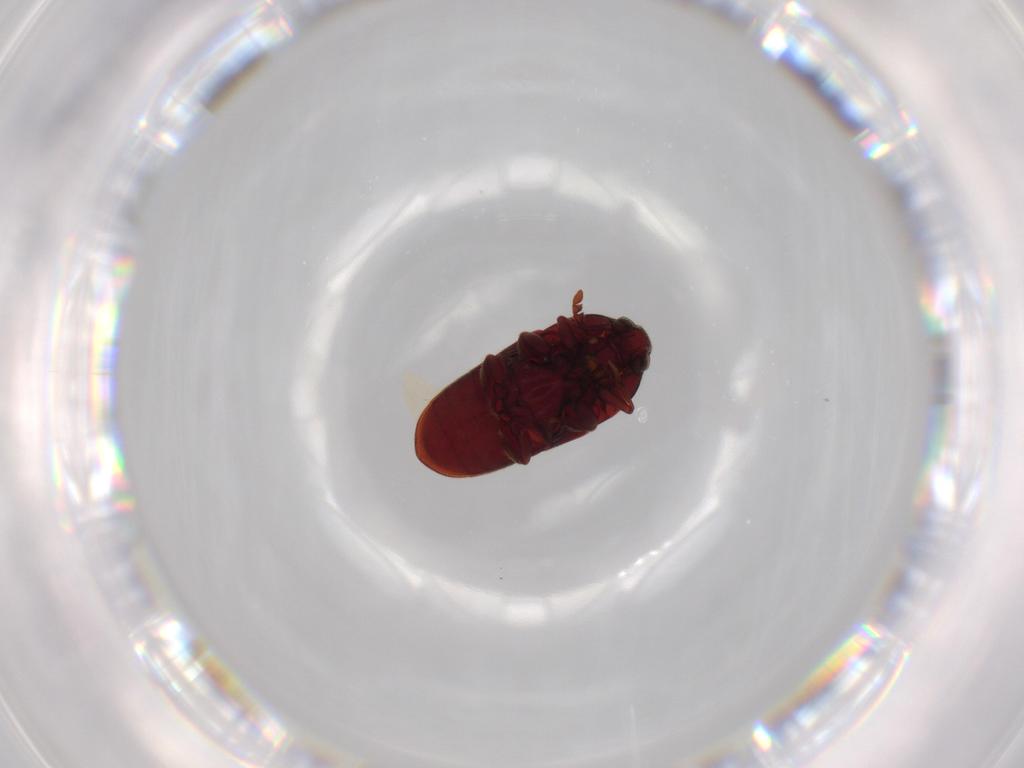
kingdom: Animalia
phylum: Arthropoda
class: Insecta
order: Coleoptera
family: Throscidae
